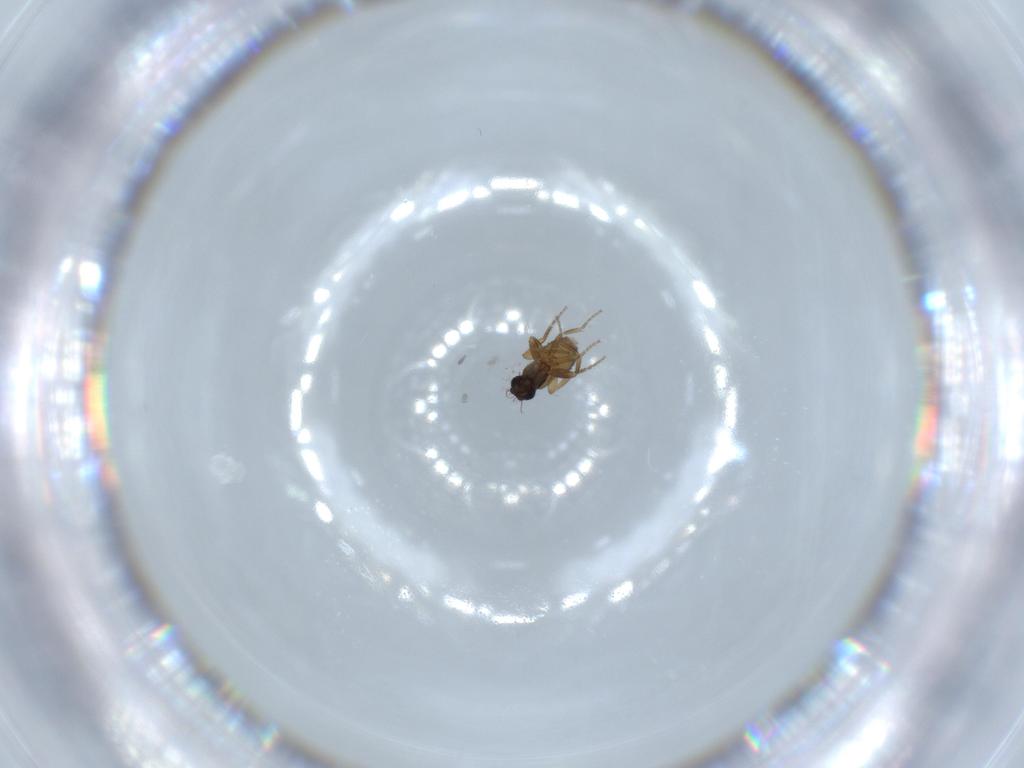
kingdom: Animalia
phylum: Arthropoda
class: Insecta
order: Diptera
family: Phoridae
